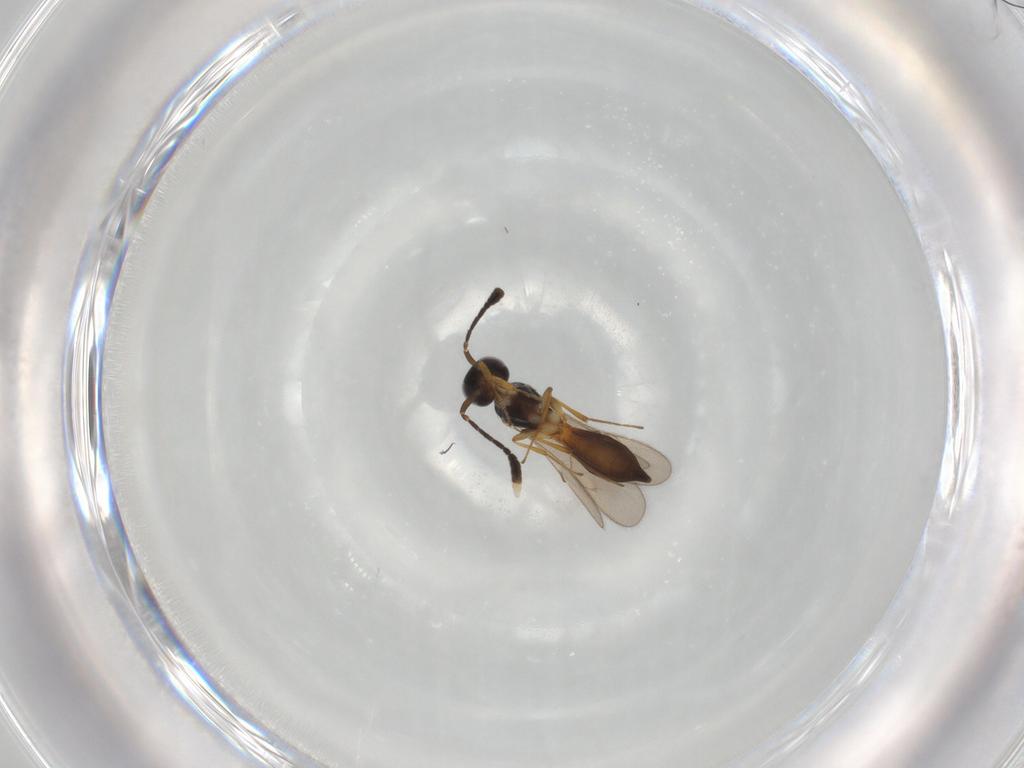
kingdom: Animalia
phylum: Arthropoda
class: Insecta
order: Hymenoptera
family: Scelionidae
